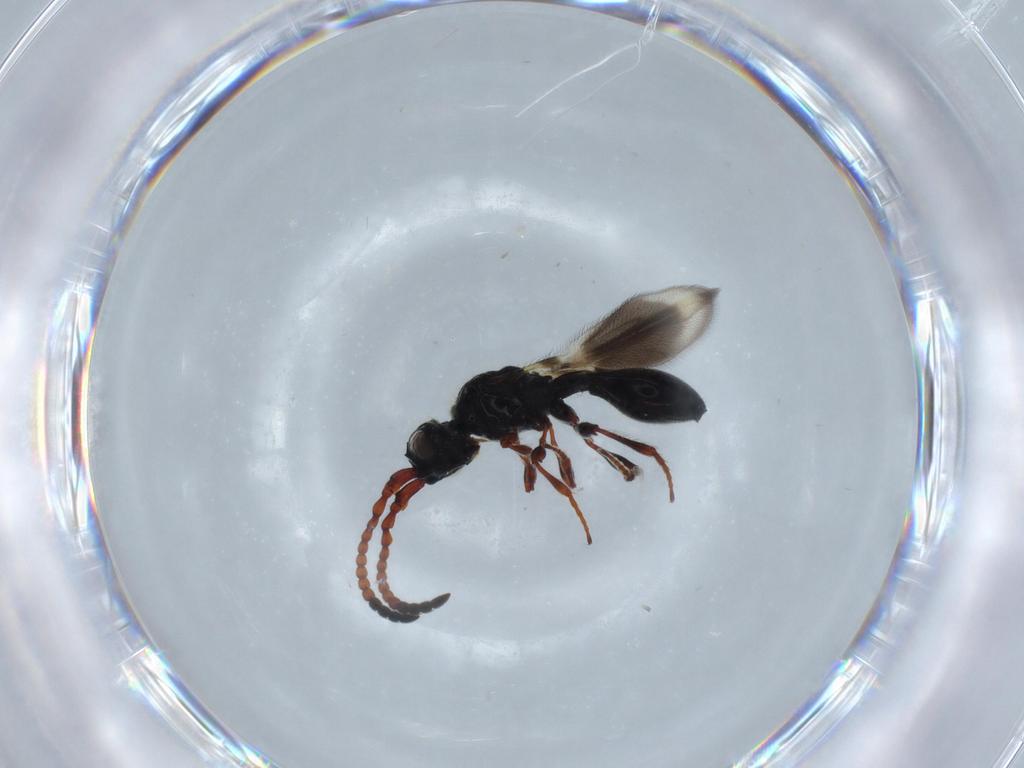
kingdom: Animalia
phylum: Arthropoda
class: Insecta
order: Hymenoptera
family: Diapriidae
